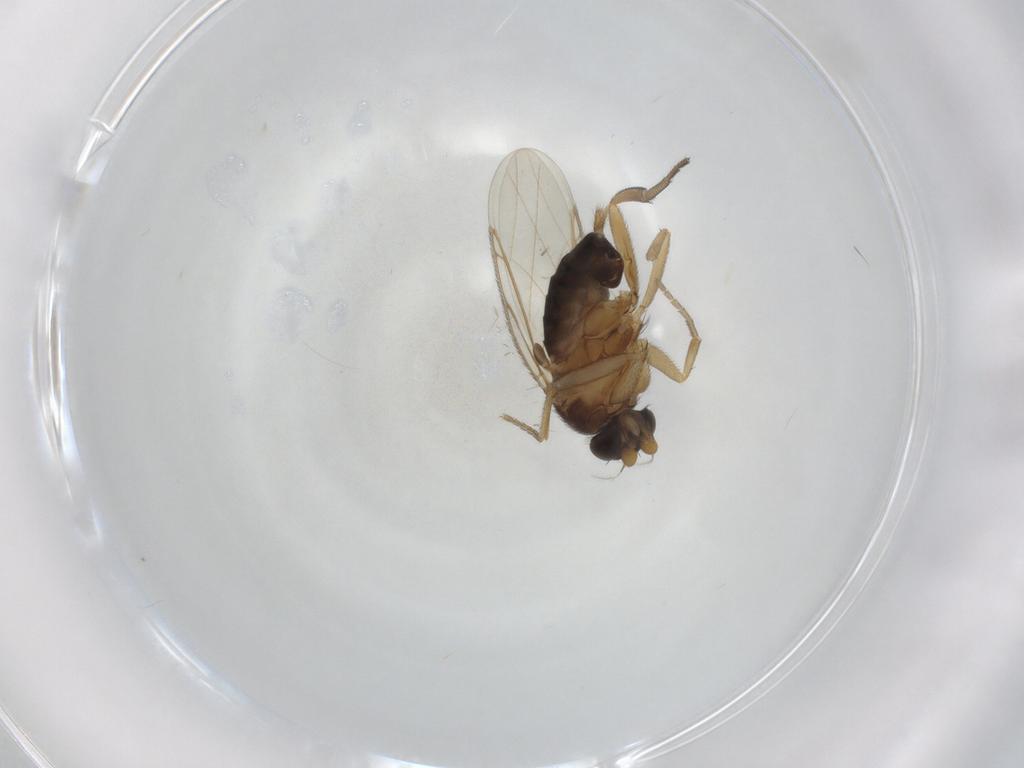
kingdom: Animalia
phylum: Arthropoda
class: Insecta
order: Diptera
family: Phoridae
